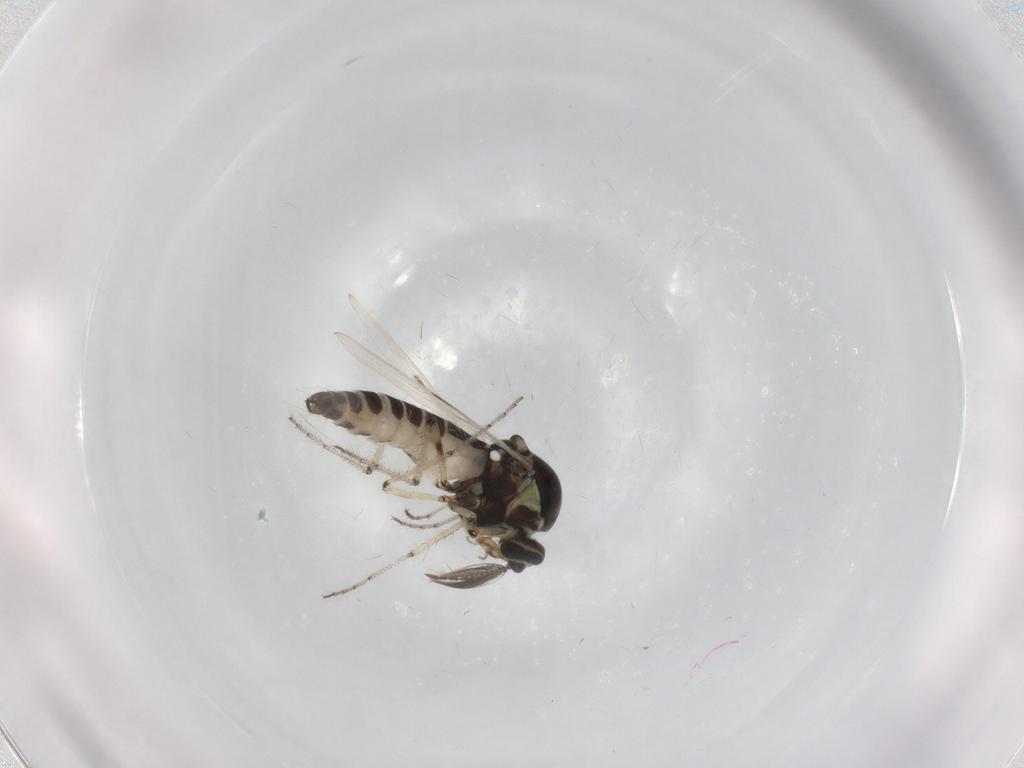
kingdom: Animalia
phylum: Arthropoda
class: Insecta
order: Diptera
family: Ceratopogonidae
